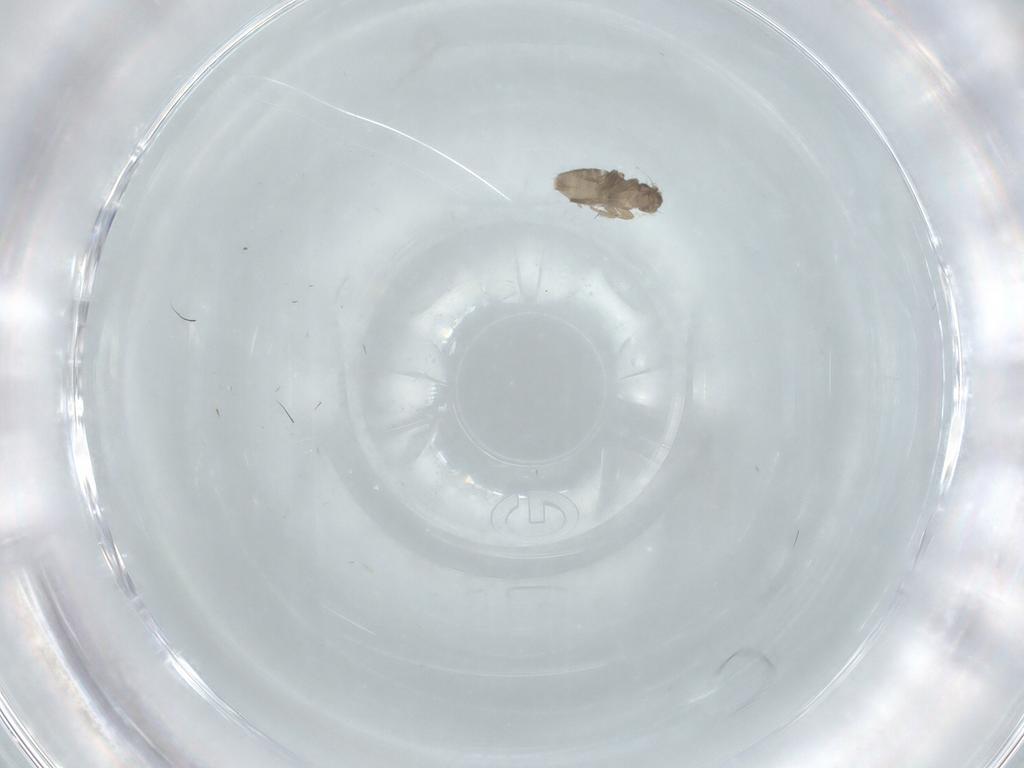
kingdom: Animalia
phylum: Arthropoda
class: Insecta
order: Diptera
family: Cecidomyiidae
